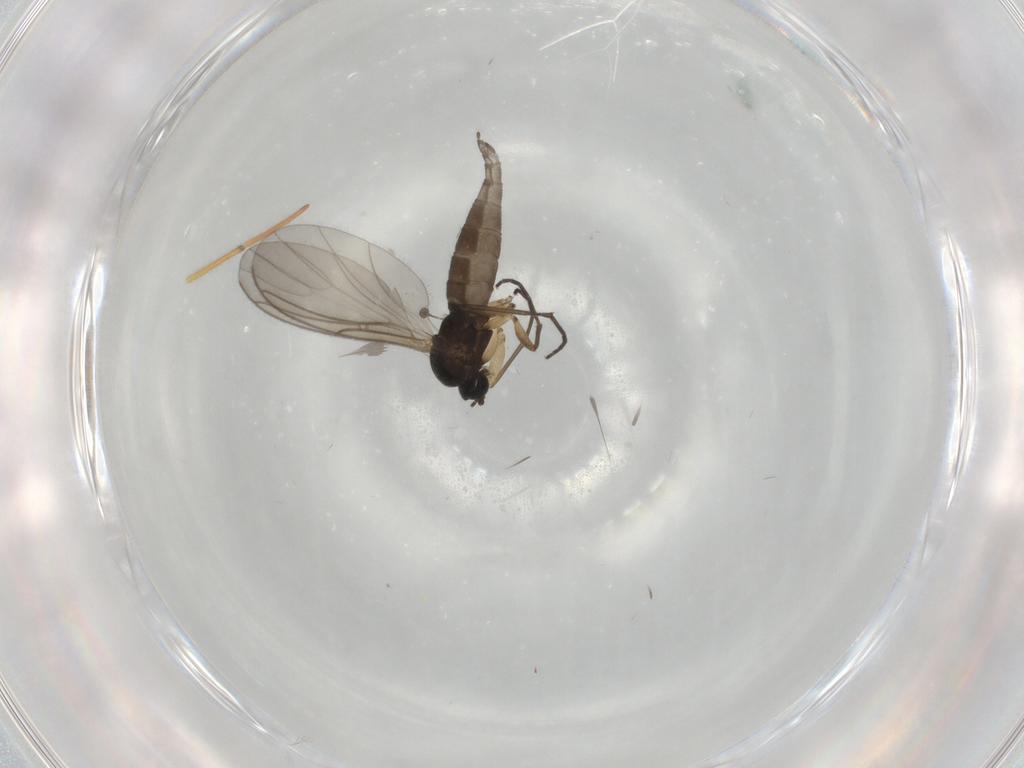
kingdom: Animalia
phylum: Arthropoda
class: Insecta
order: Diptera
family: Sciaridae
